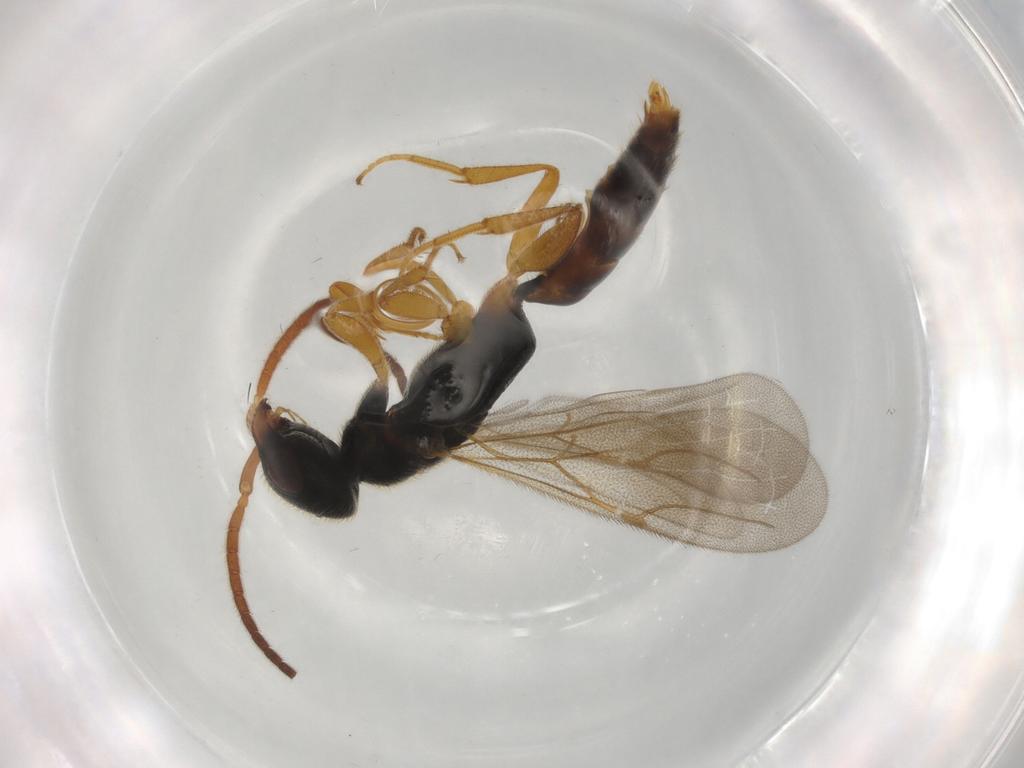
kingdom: Animalia
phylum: Arthropoda
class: Insecta
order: Hymenoptera
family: Bethylidae
